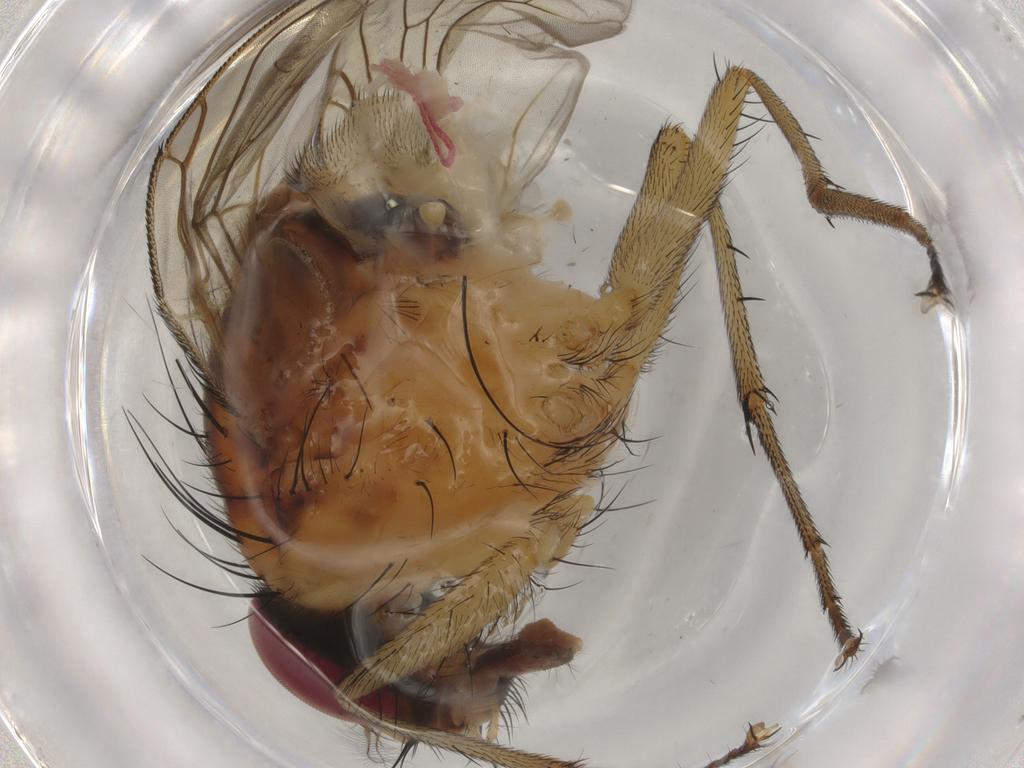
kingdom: Animalia
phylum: Arthropoda
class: Insecta
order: Diptera
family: Muscidae
